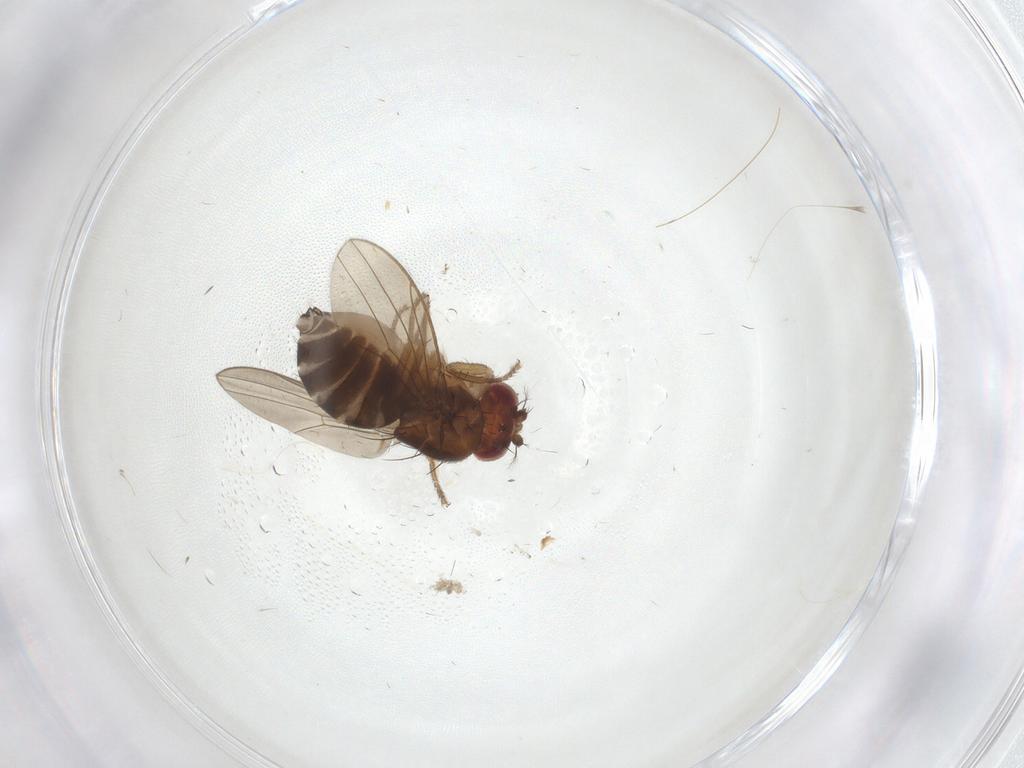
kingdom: Animalia
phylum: Arthropoda
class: Insecta
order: Diptera
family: Drosophilidae
